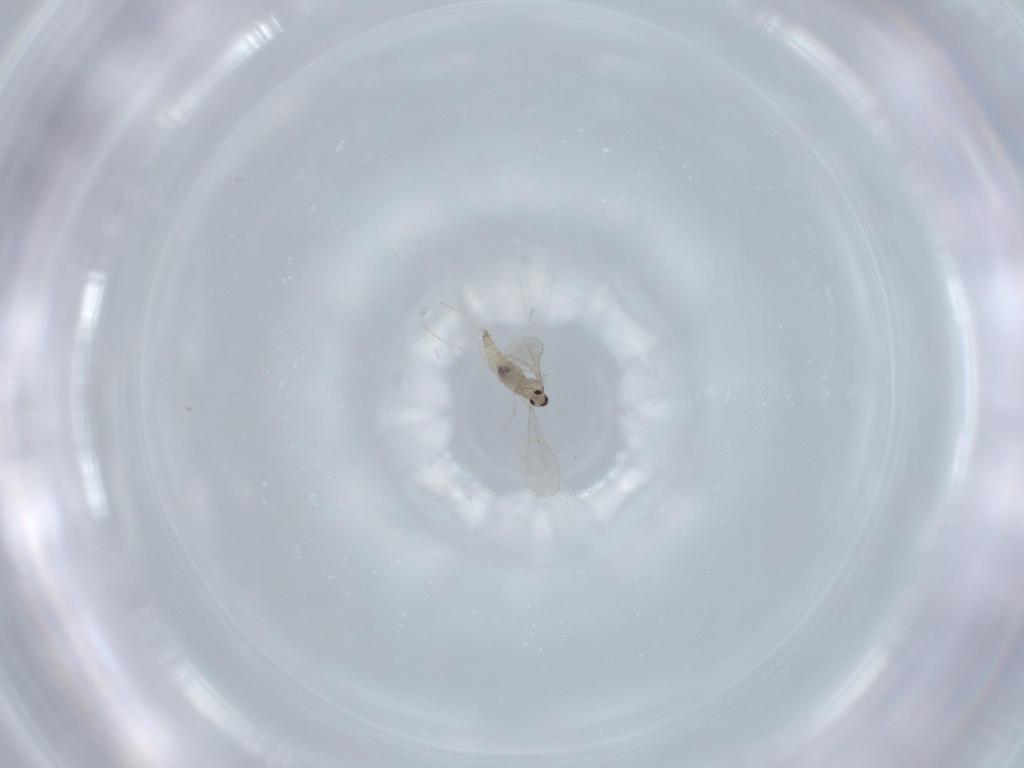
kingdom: Animalia
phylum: Arthropoda
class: Insecta
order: Diptera
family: Cecidomyiidae
